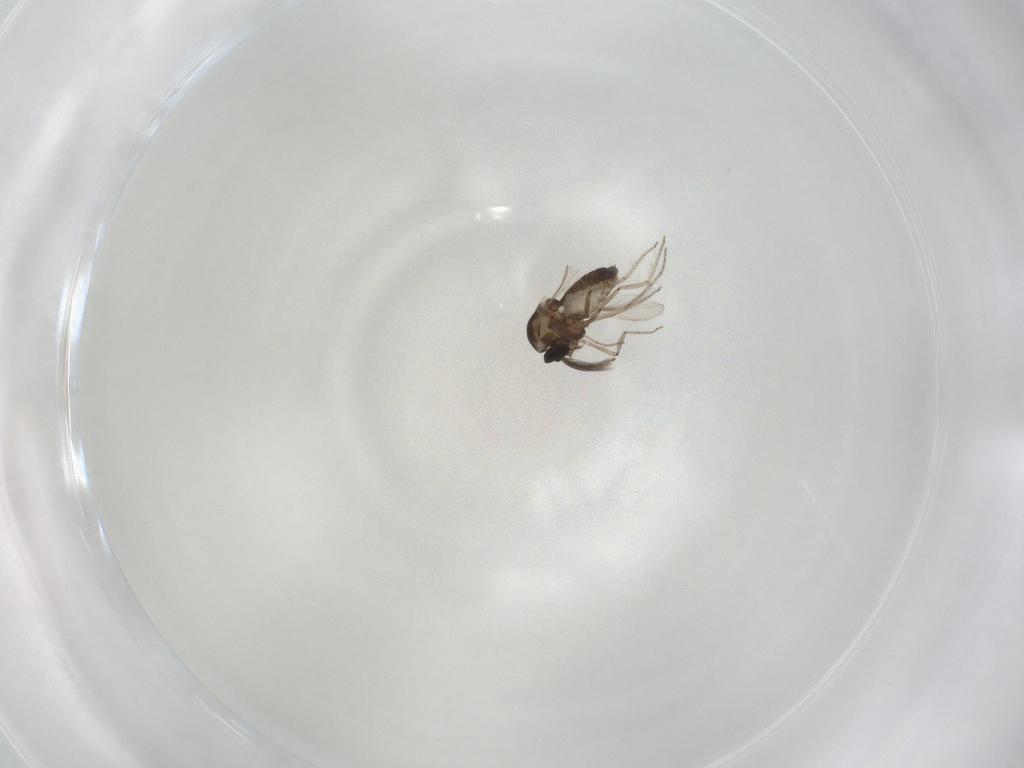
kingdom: Animalia
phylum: Arthropoda
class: Insecta
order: Diptera
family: Ceratopogonidae
